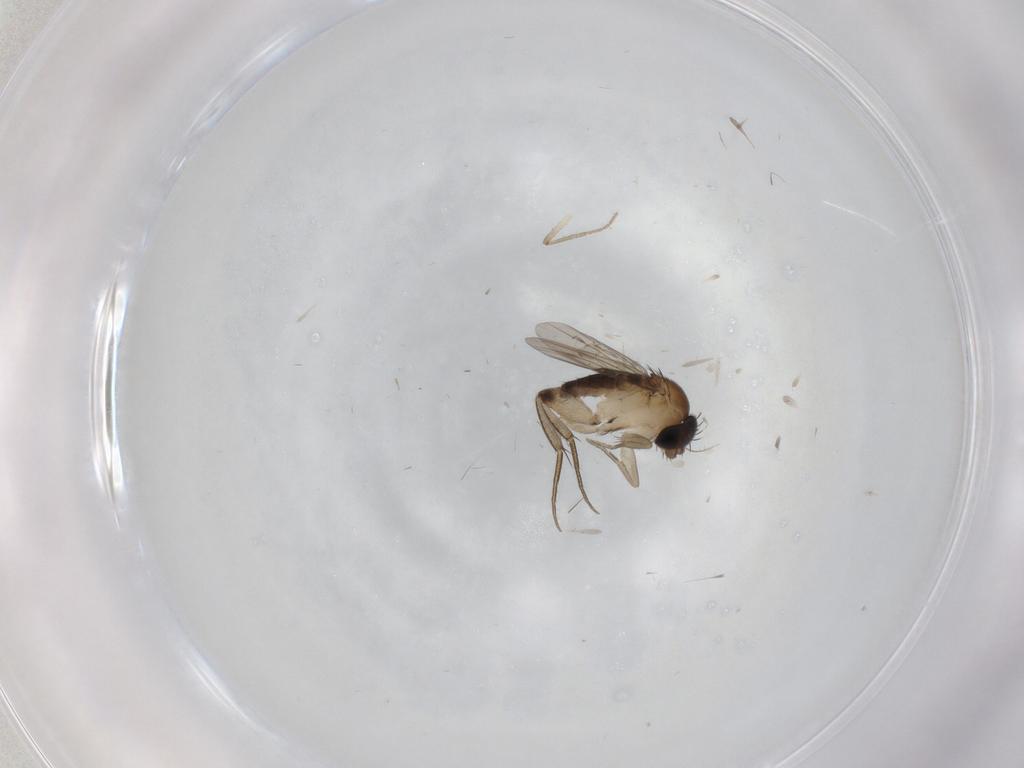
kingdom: Animalia
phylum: Arthropoda
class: Insecta
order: Diptera
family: Phoridae
